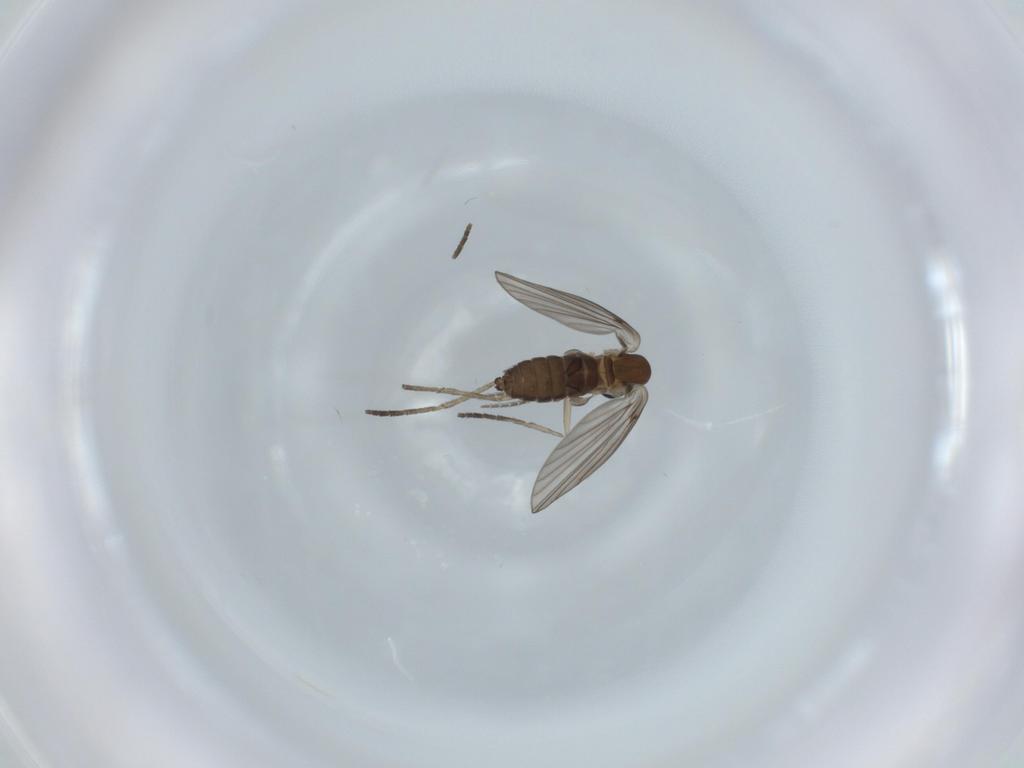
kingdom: Animalia
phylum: Arthropoda
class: Insecta
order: Diptera
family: Psychodidae
